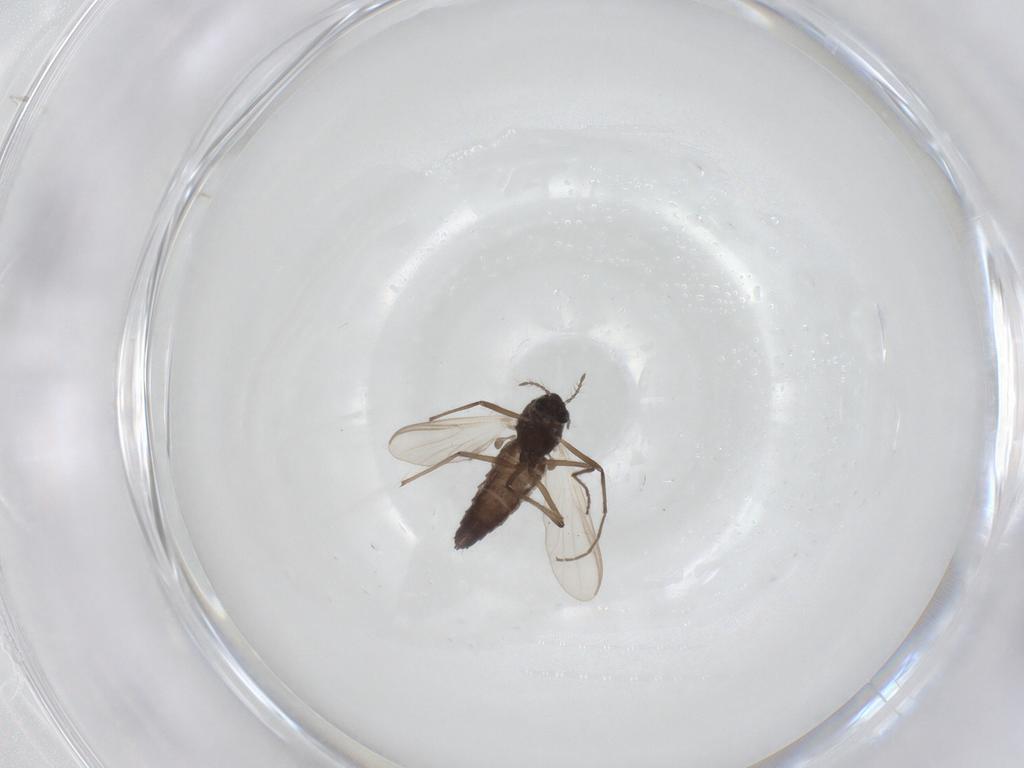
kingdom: Animalia
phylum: Arthropoda
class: Insecta
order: Diptera
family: Chironomidae
